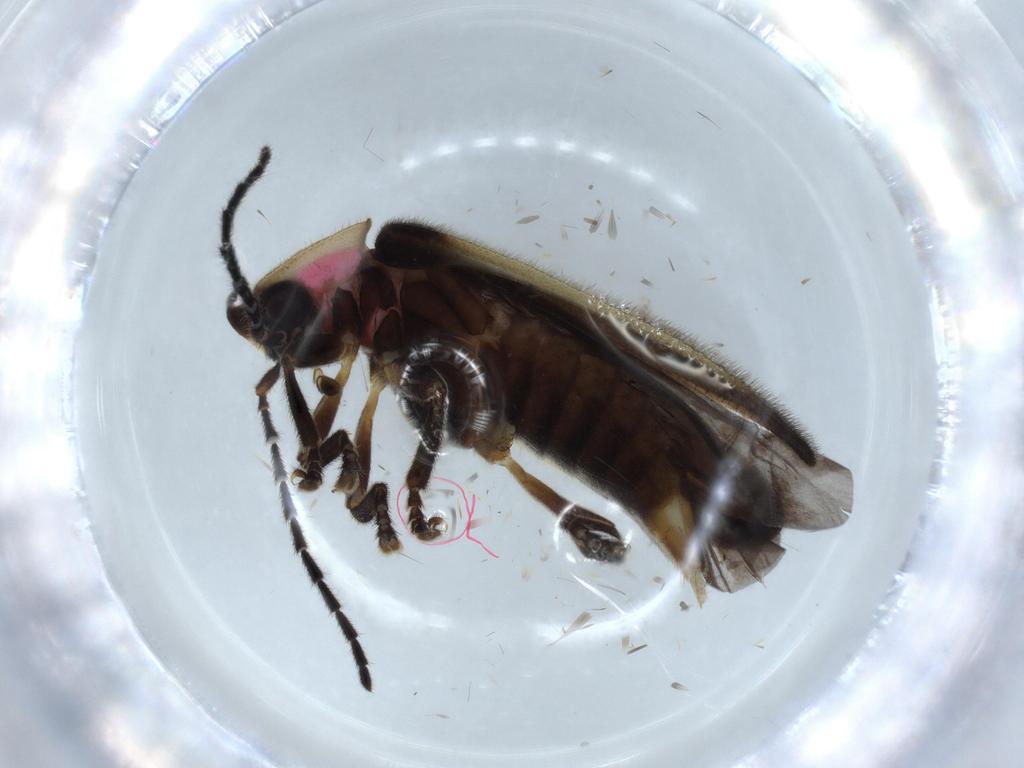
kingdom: Animalia
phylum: Arthropoda
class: Insecta
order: Coleoptera
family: Lampyridae
